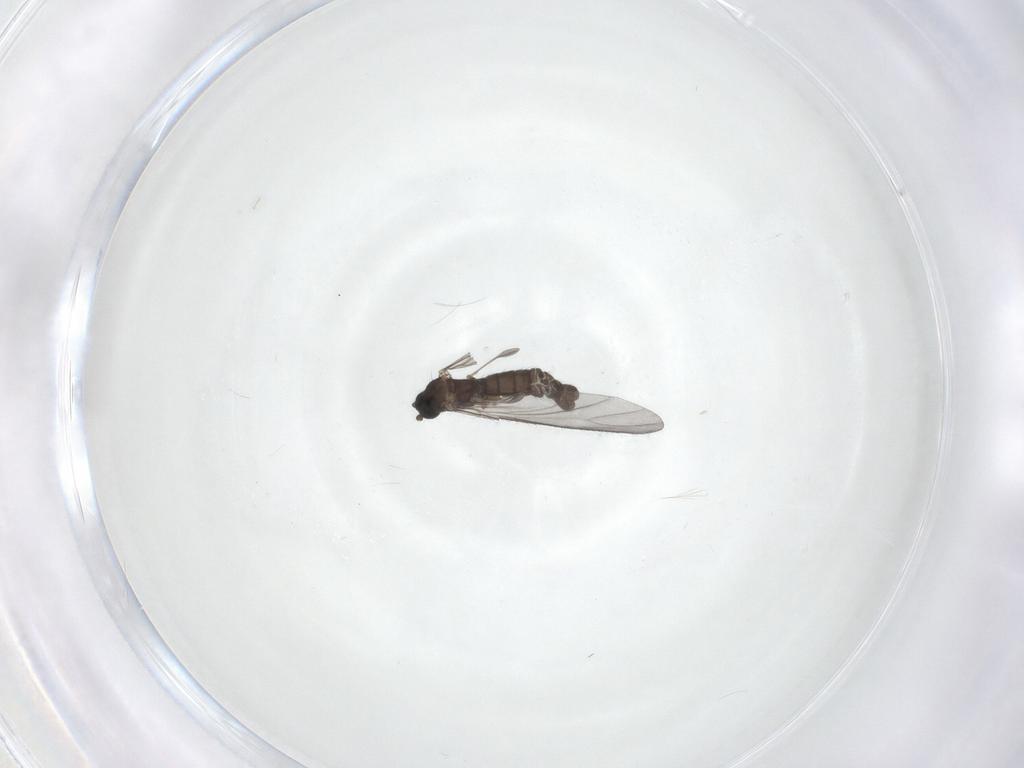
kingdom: Animalia
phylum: Arthropoda
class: Insecta
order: Diptera
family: Sciaridae
